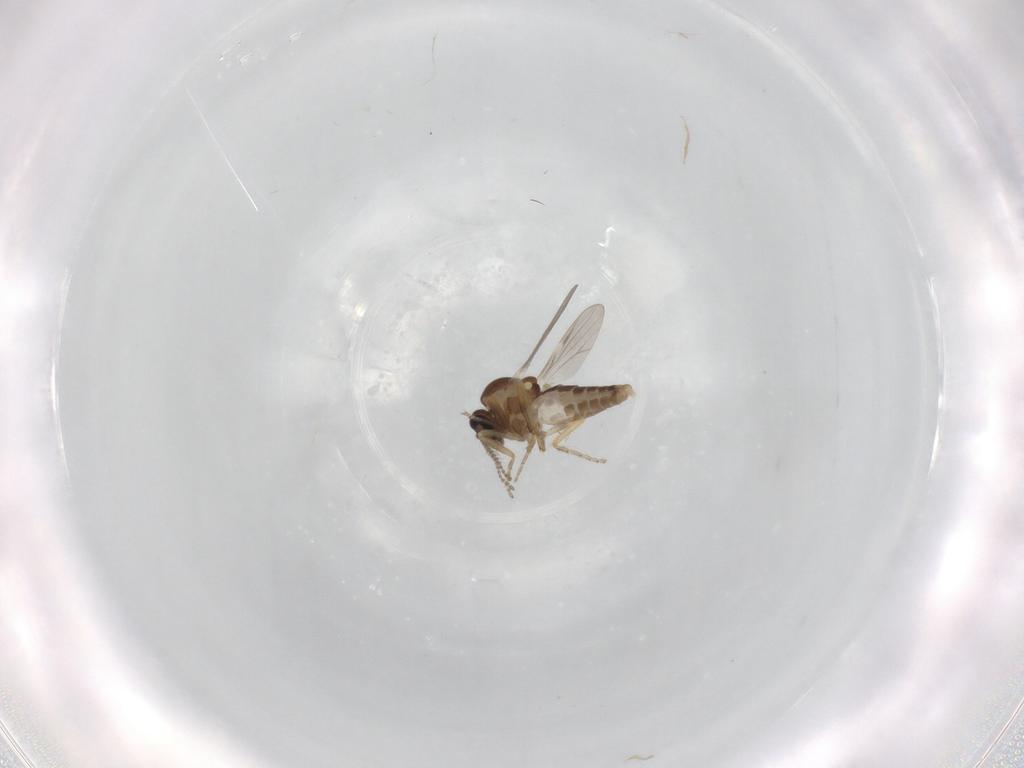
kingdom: Animalia
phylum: Arthropoda
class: Insecta
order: Diptera
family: Ceratopogonidae
